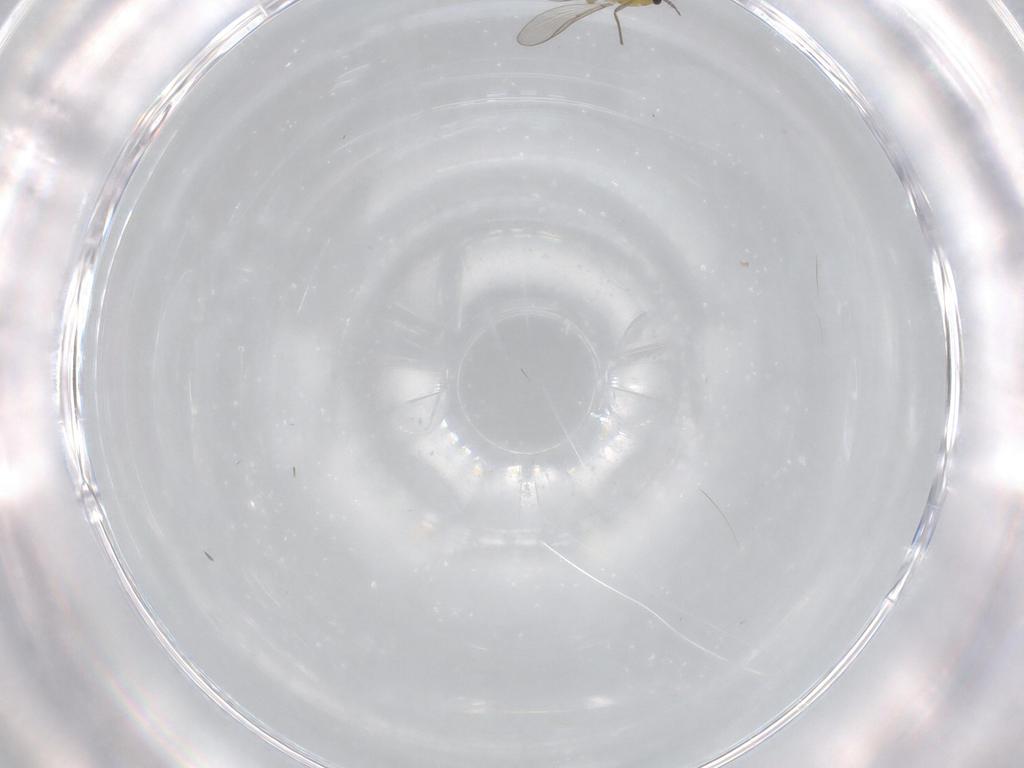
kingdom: Animalia
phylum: Arthropoda
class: Insecta
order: Diptera
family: Chironomidae
